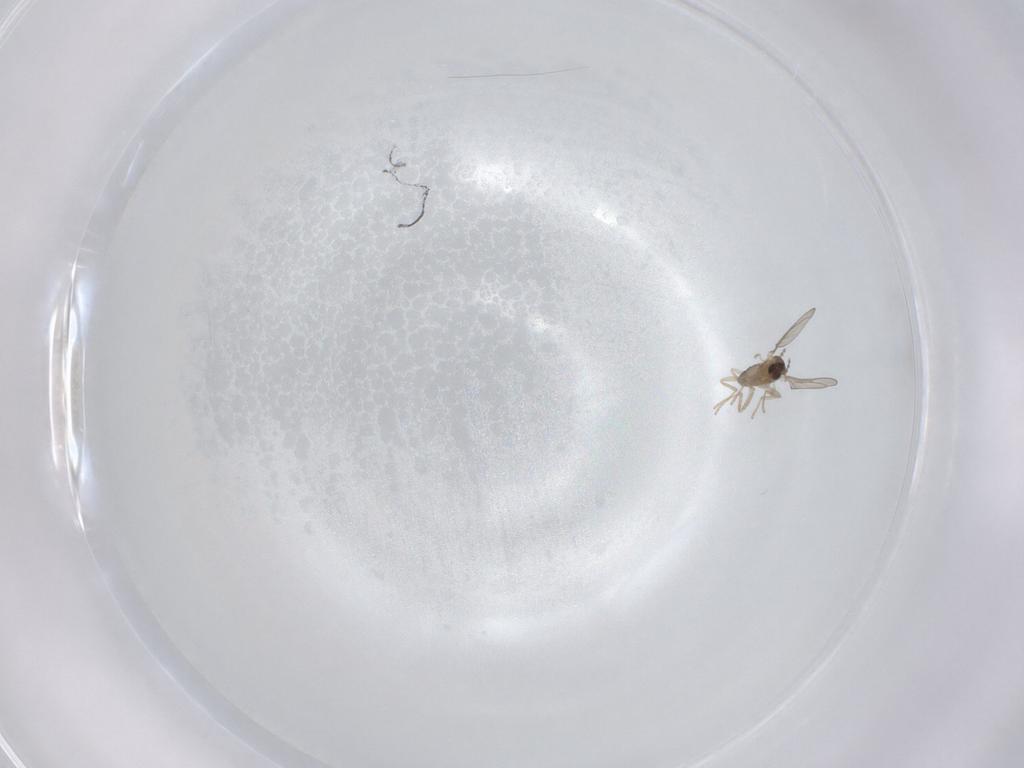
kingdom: Animalia
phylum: Arthropoda
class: Insecta
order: Diptera
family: Cecidomyiidae
